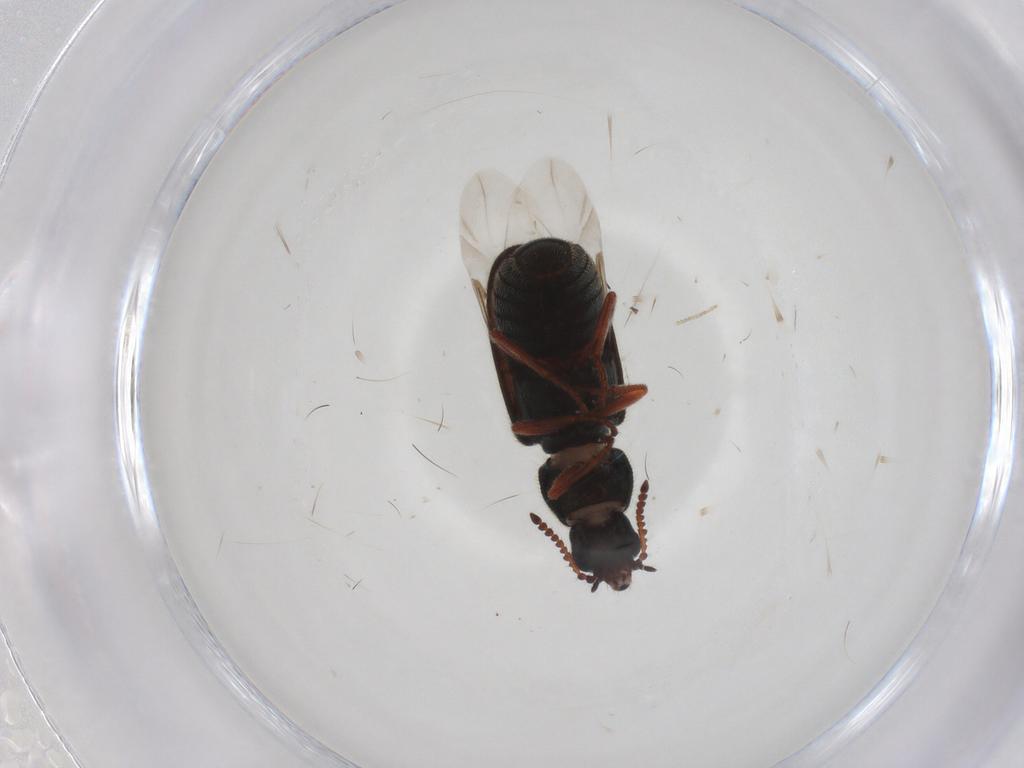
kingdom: Animalia
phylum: Arthropoda
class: Insecta
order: Coleoptera
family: Melyridae
